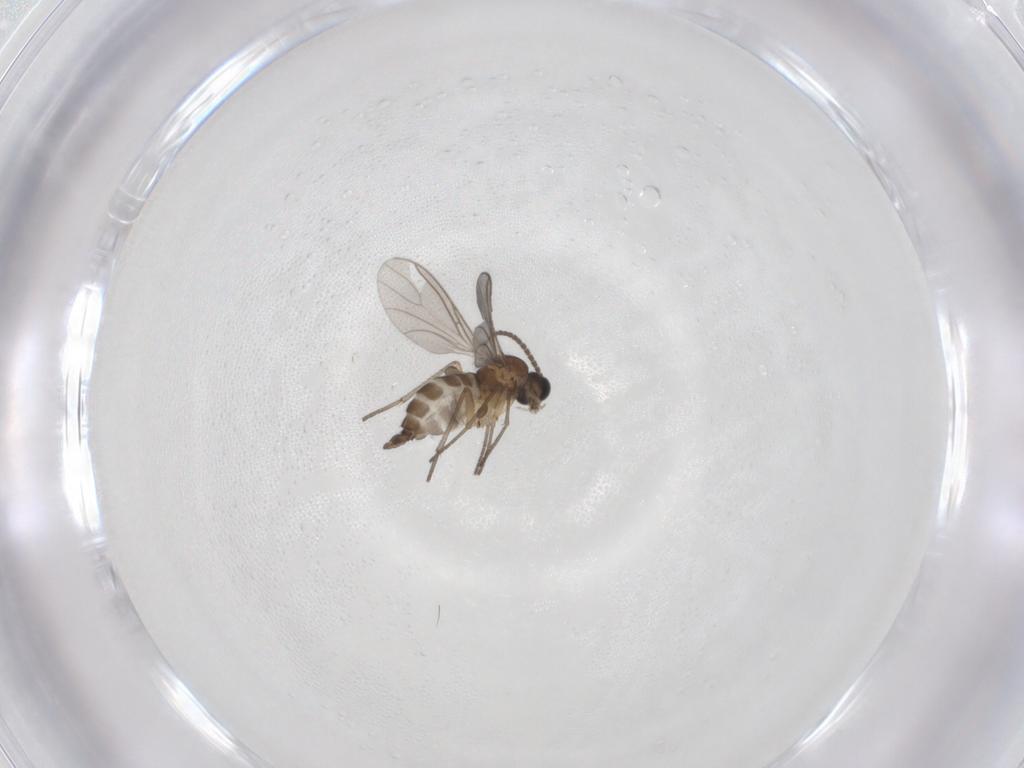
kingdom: Animalia
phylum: Arthropoda
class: Insecta
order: Diptera
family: Sciaridae
